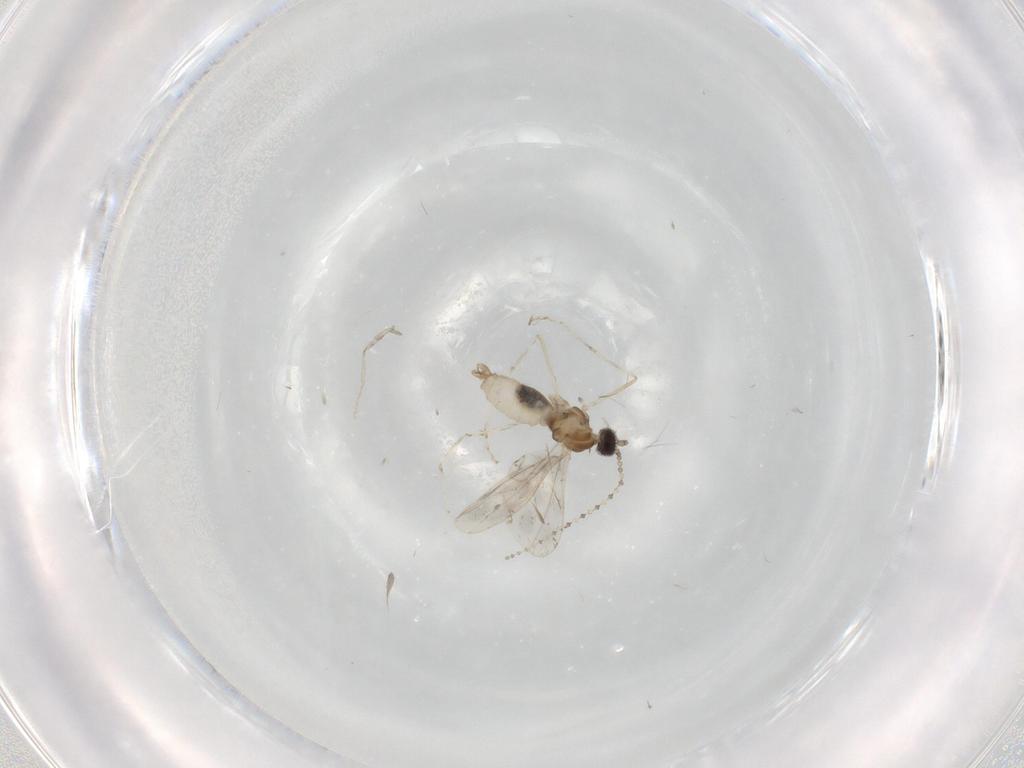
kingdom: Animalia
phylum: Arthropoda
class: Insecta
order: Diptera
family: Cecidomyiidae
